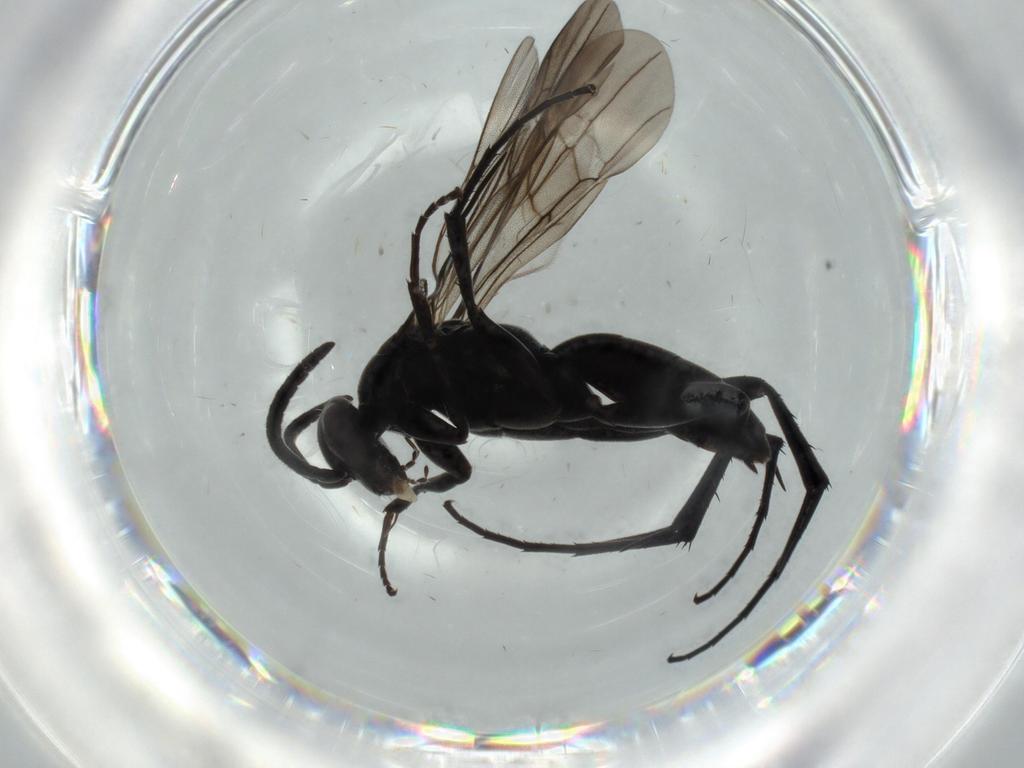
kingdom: Animalia
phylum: Arthropoda
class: Insecta
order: Hymenoptera
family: Pompilidae
